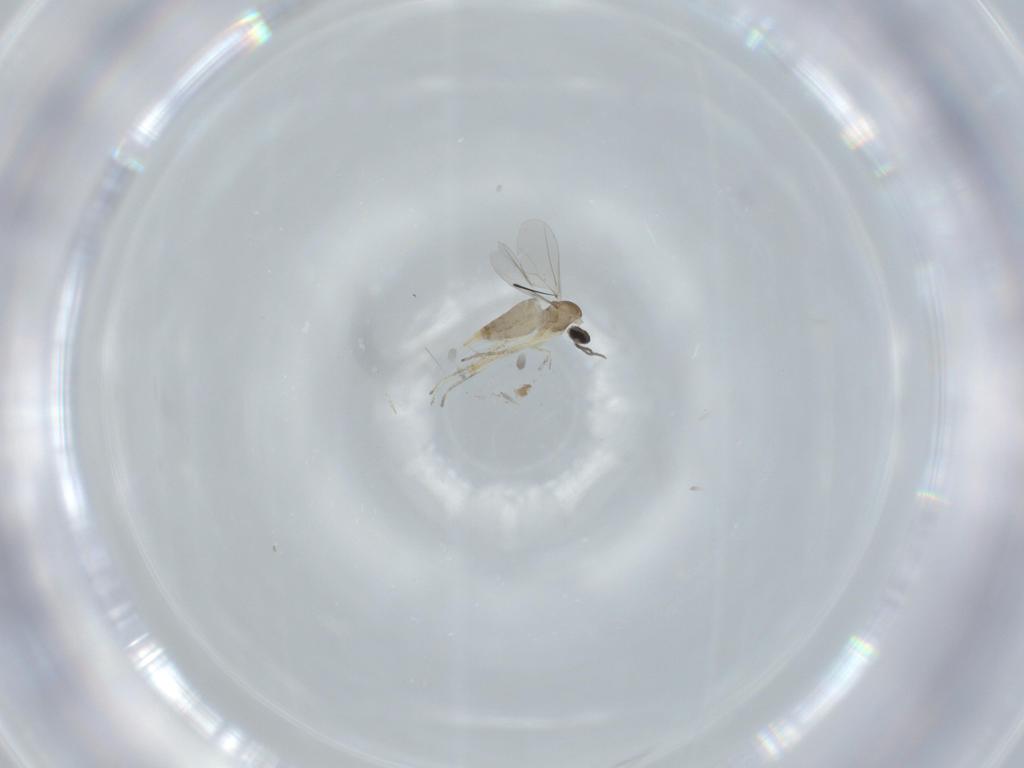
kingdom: Animalia
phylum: Arthropoda
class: Insecta
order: Diptera
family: Cecidomyiidae
